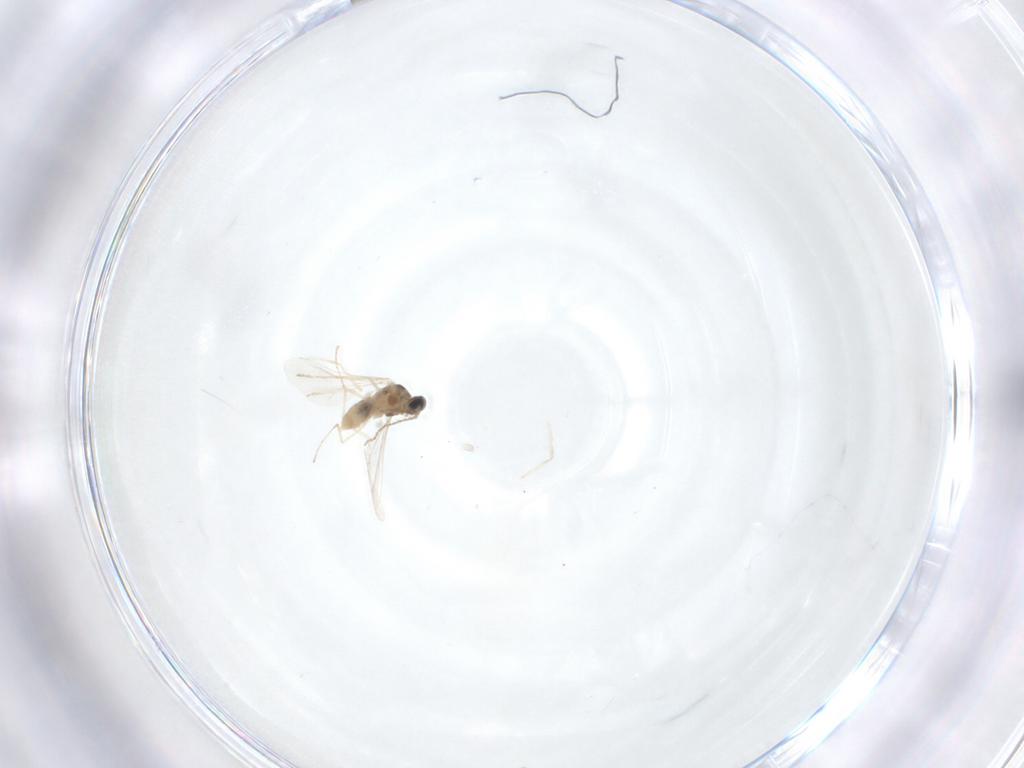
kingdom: Animalia
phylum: Arthropoda
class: Insecta
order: Diptera
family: Cecidomyiidae
